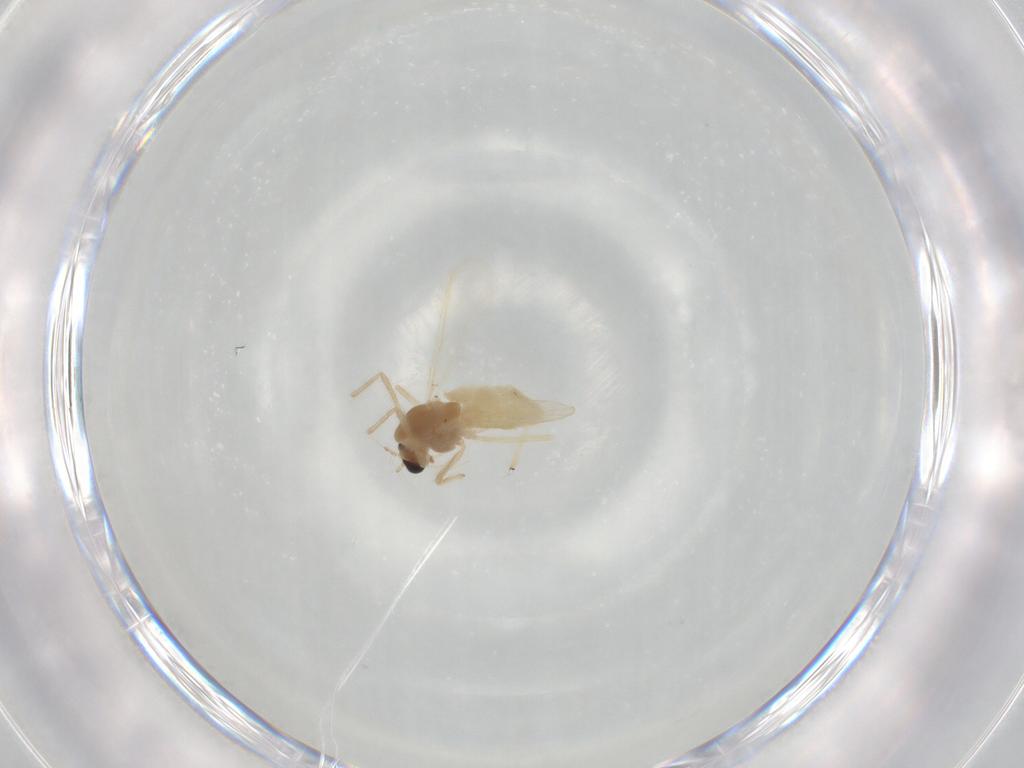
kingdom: Animalia
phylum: Arthropoda
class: Insecta
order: Diptera
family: Chironomidae
